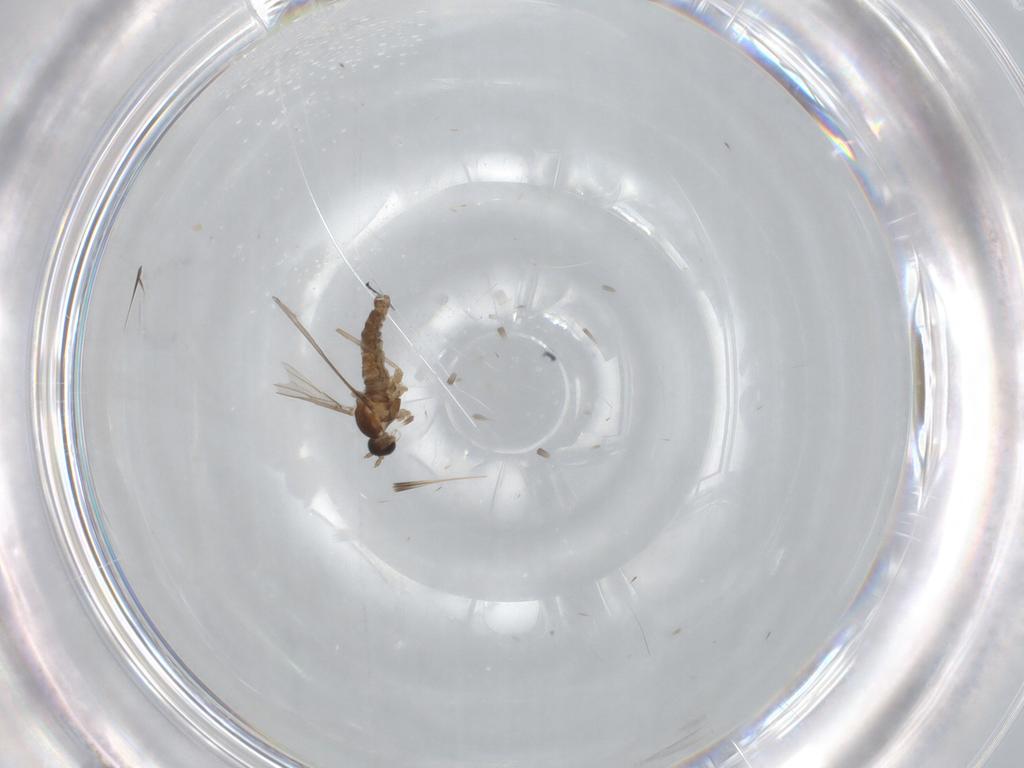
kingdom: Animalia
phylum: Arthropoda
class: Insecta
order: Diptera
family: Cecidomyiidae
